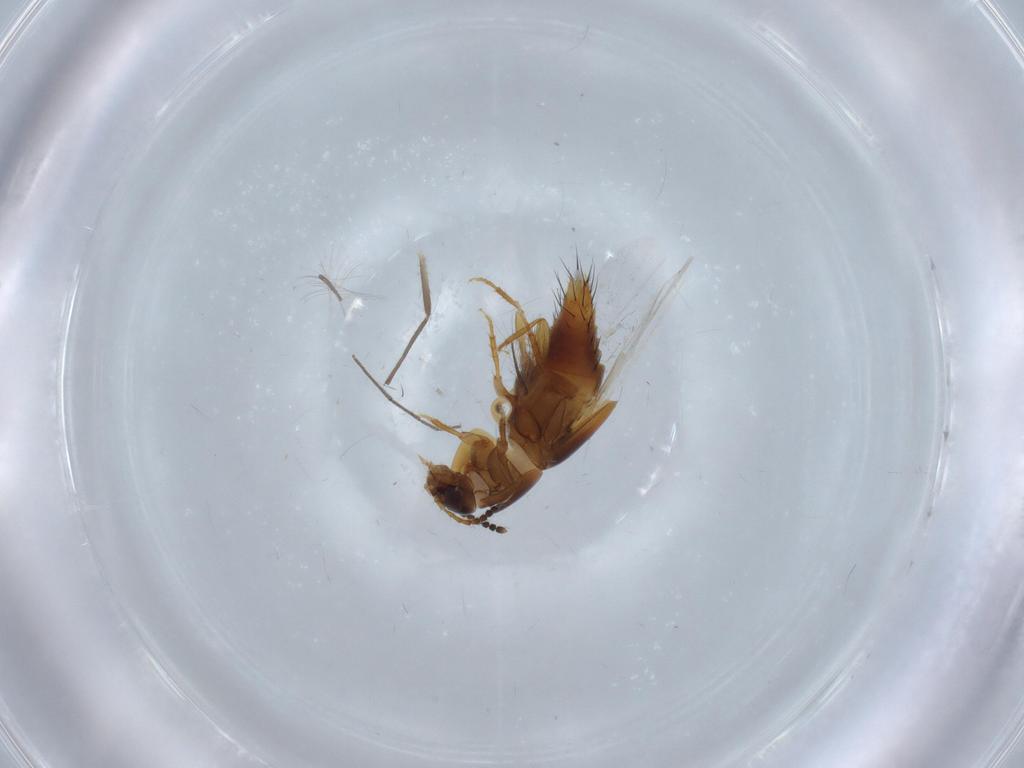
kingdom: Animalia
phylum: Arthropoda
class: Insecta
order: Coleoptera
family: Staphylinidae
